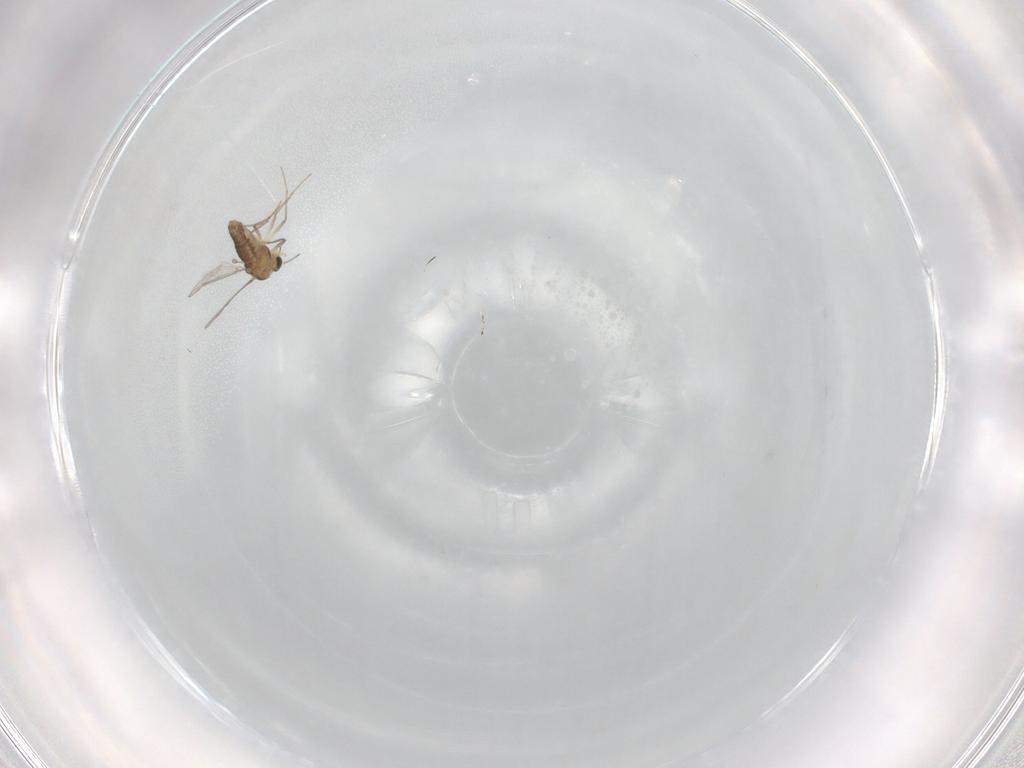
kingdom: Animalia
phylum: Arthropoda
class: Insecta
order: Diptera
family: Chironomidae
